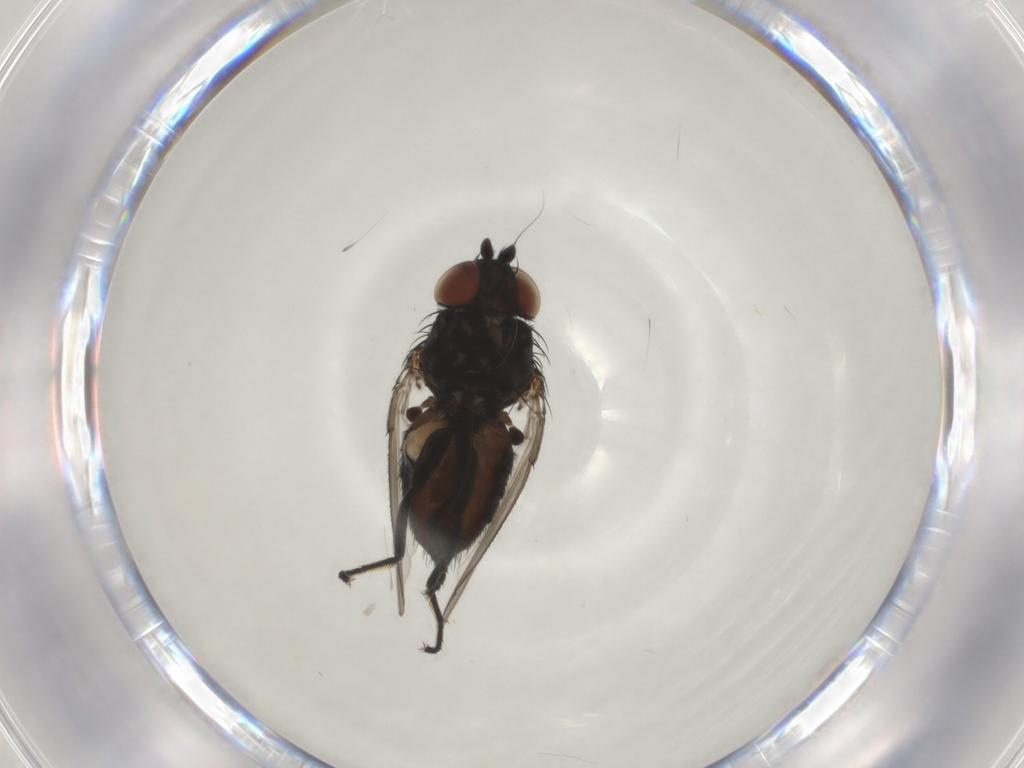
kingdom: Animalia
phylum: Arthropoda
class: Insecta
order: Diptera
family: Milichiidae
